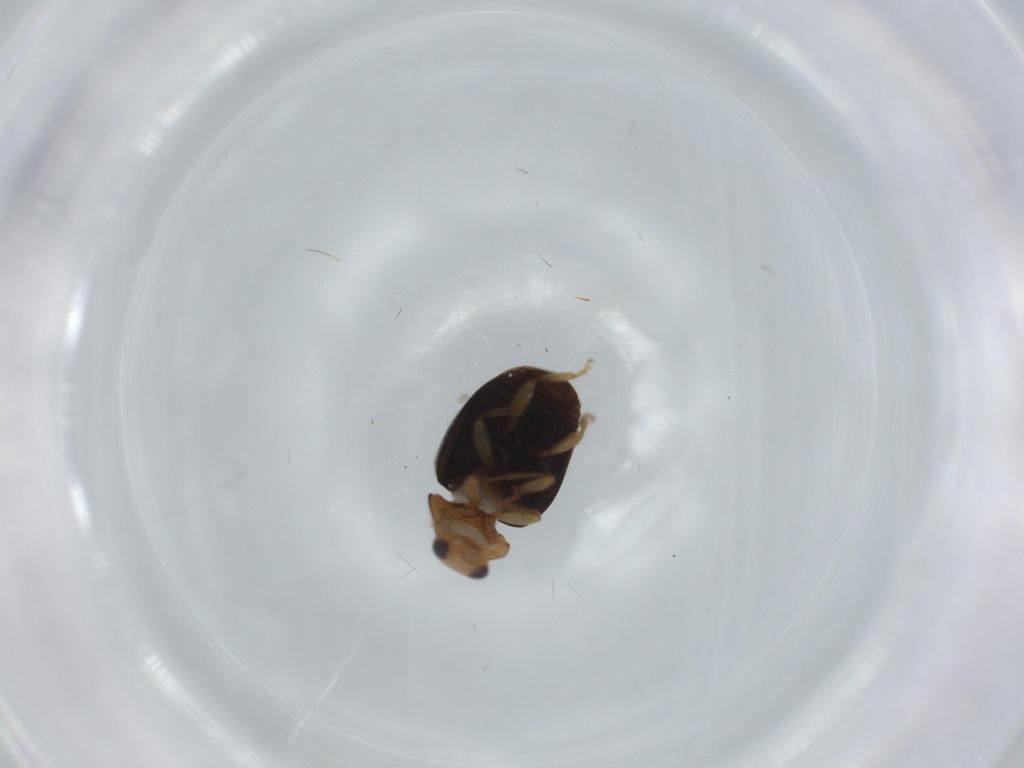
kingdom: Animalia
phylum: Arthropoda
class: Insecta
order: Coleoptera
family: Coccinellidae
